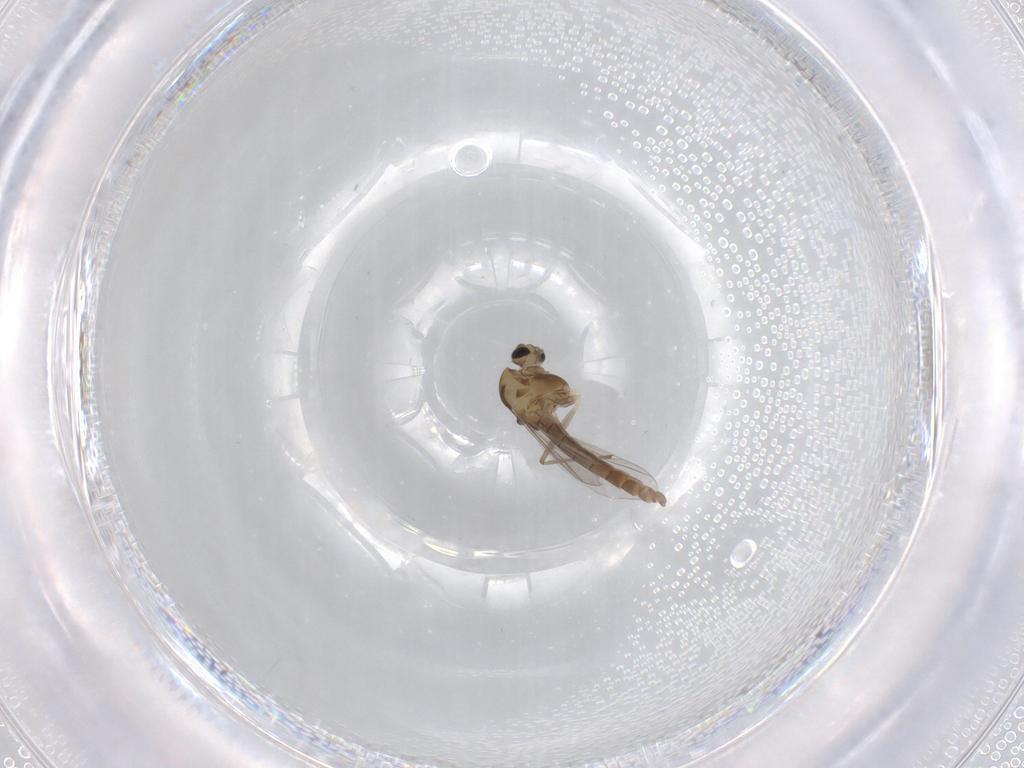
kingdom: Animalia
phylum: Arthropoda
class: Insecta
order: Diptera
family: Chironomidae
